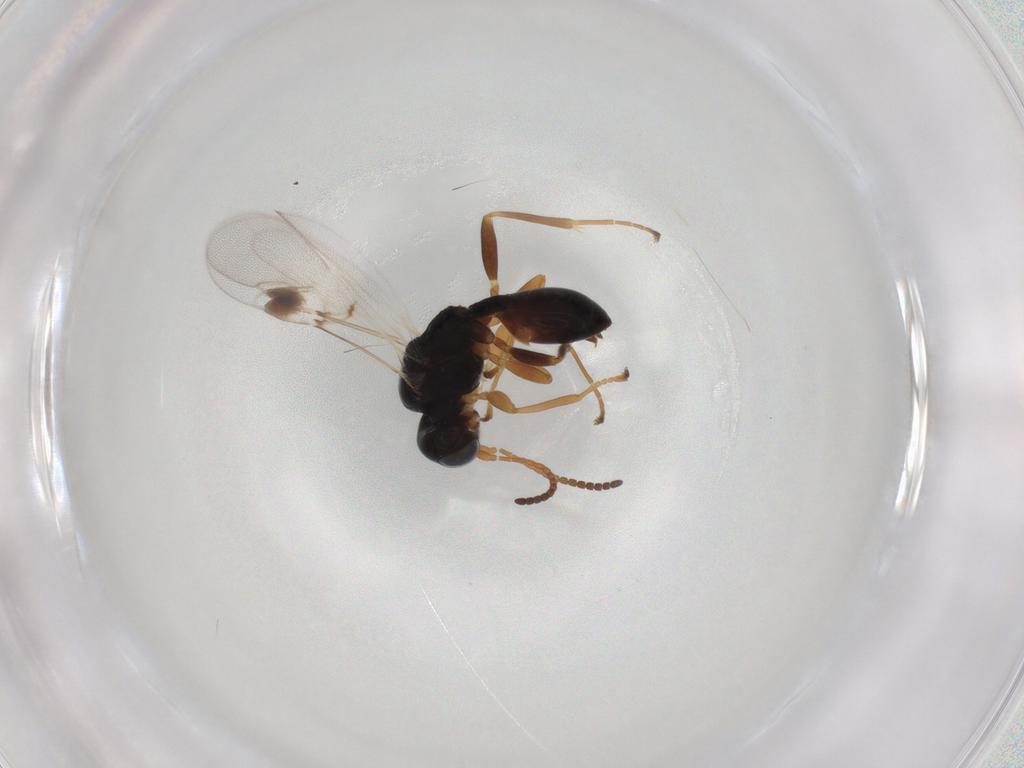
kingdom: Animalia
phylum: Arthropoda
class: Insecta
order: Hymenoptera
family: Braconidae
